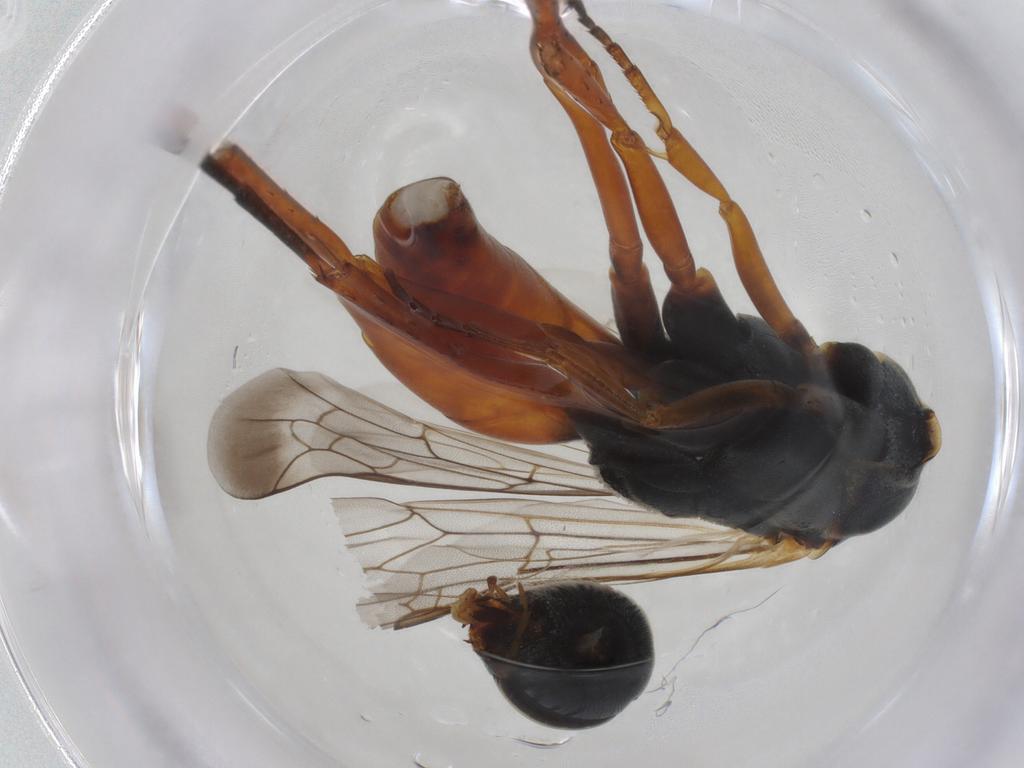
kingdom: Animalia
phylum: Arthropoda
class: Insecta
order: Hymenoptera
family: Pompilidae
